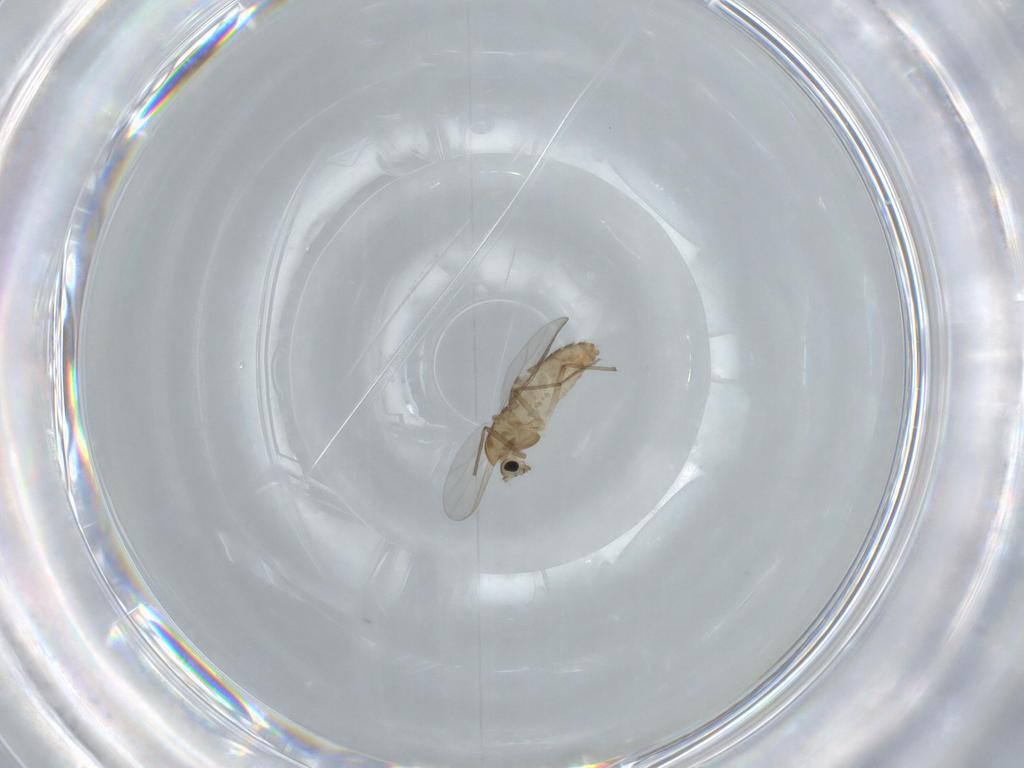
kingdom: Animalia
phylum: Arthropoda
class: Insecta
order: Diptera
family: Chironomidae
